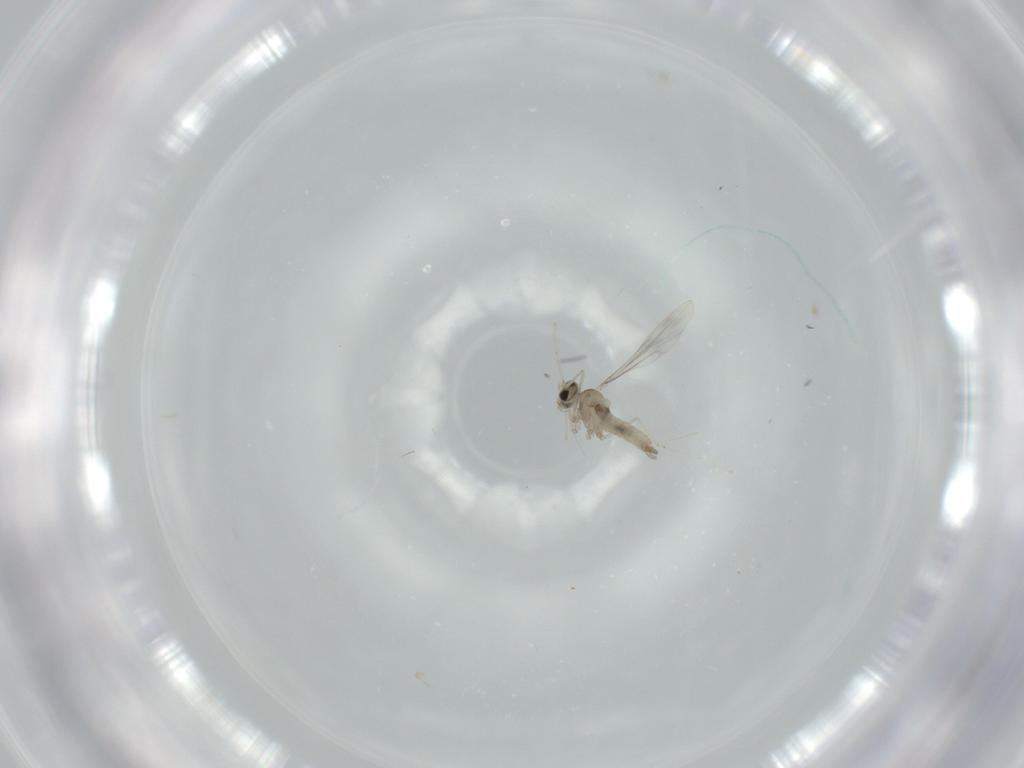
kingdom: Animalia
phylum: Arthropoda
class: Insecta
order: Diptera
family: Cecidomyiidae
